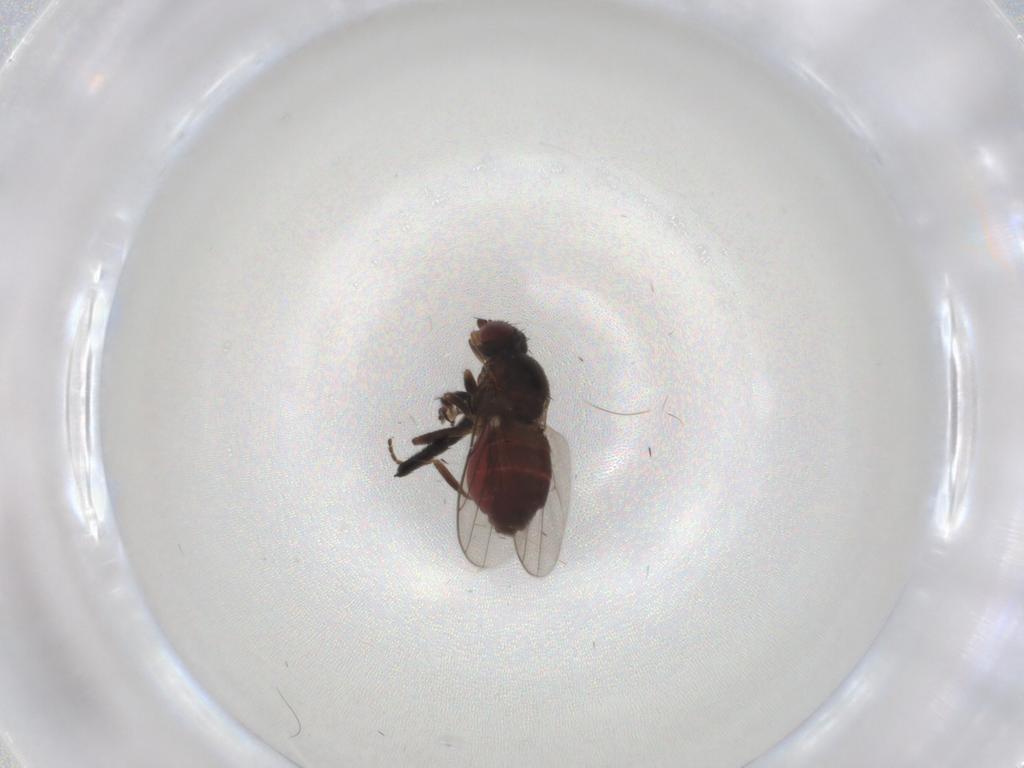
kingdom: Animalia
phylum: Arthropoda
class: Insecta
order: Diptera
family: Chloropidae
